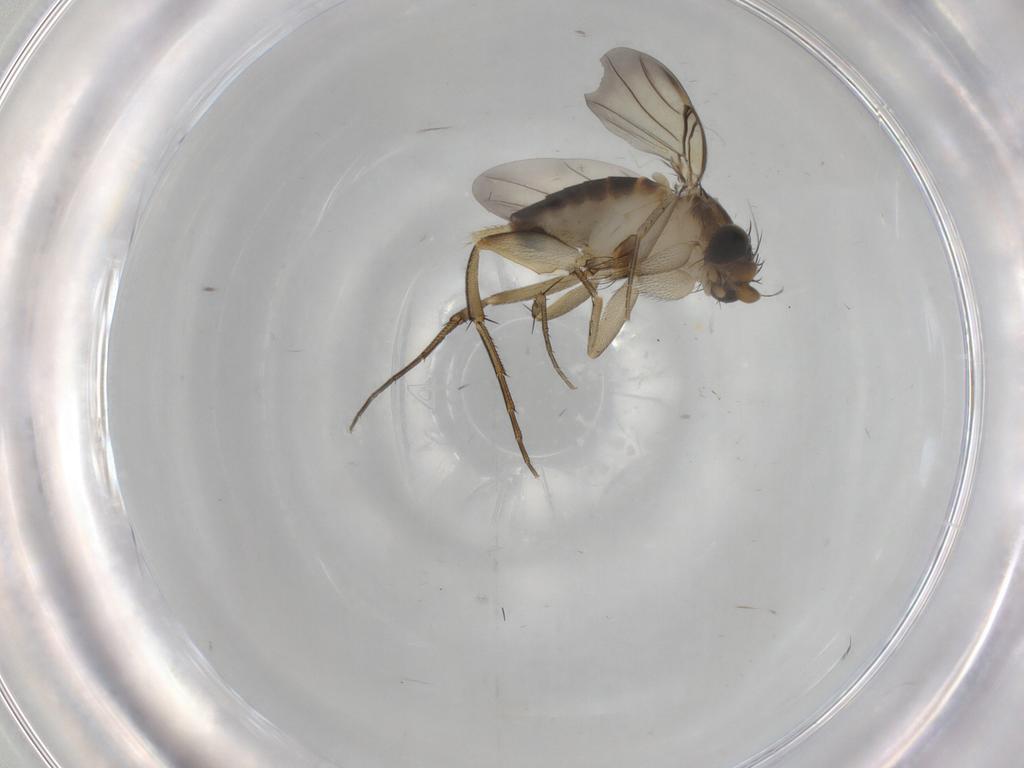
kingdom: Animalia
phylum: Arthropoda
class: Insecta
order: Diptera
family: Phoridae
